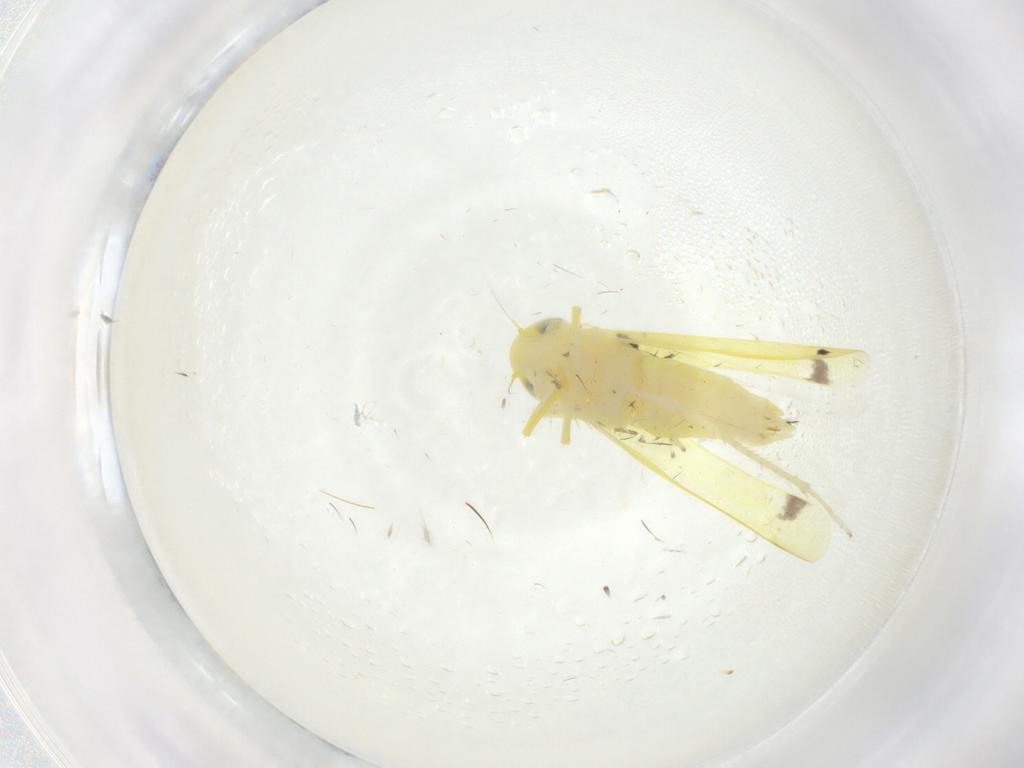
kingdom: Animalia
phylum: Arthropoda
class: Insecta
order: Hemiptera
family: Cicadellidae
